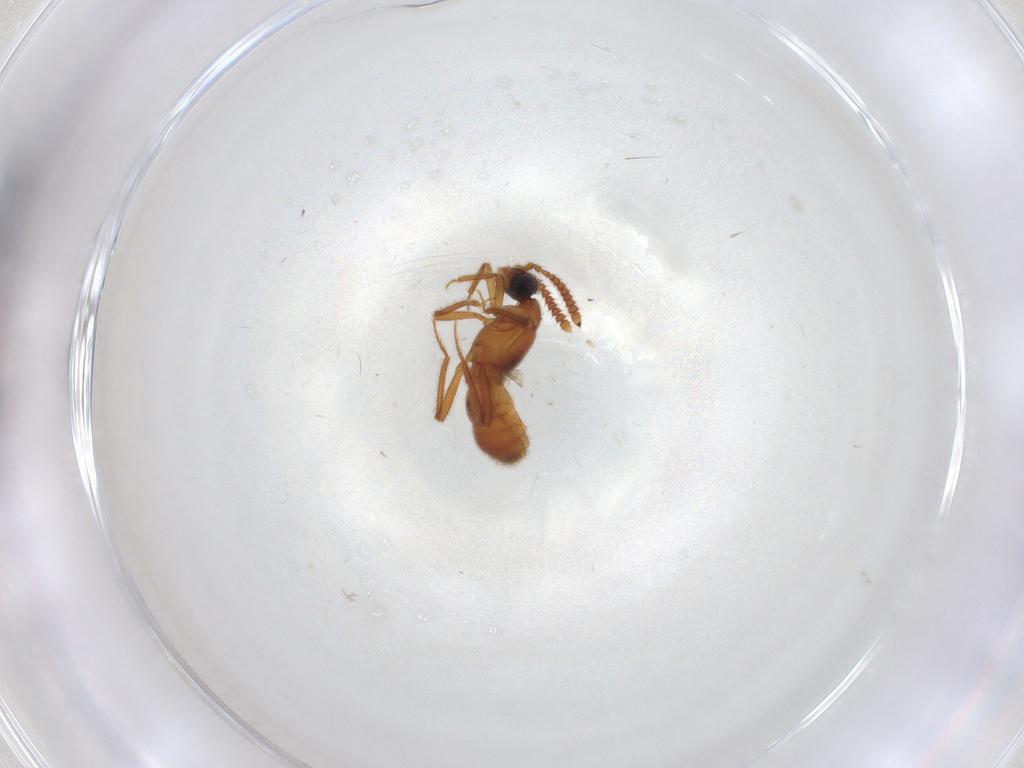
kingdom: Animalia
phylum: Arthropoda
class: Insecta
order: Coleoptera
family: Staphylinidae
